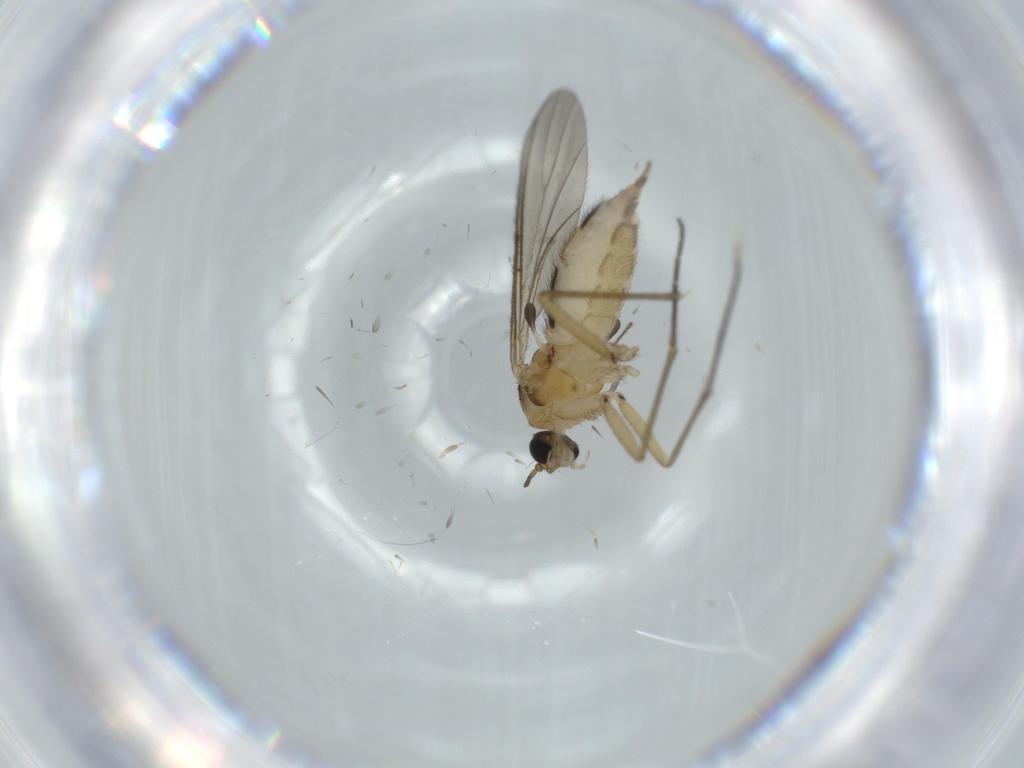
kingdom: Animalia
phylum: Arthropoda
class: Insecta
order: Diptera
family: Sciaridae
